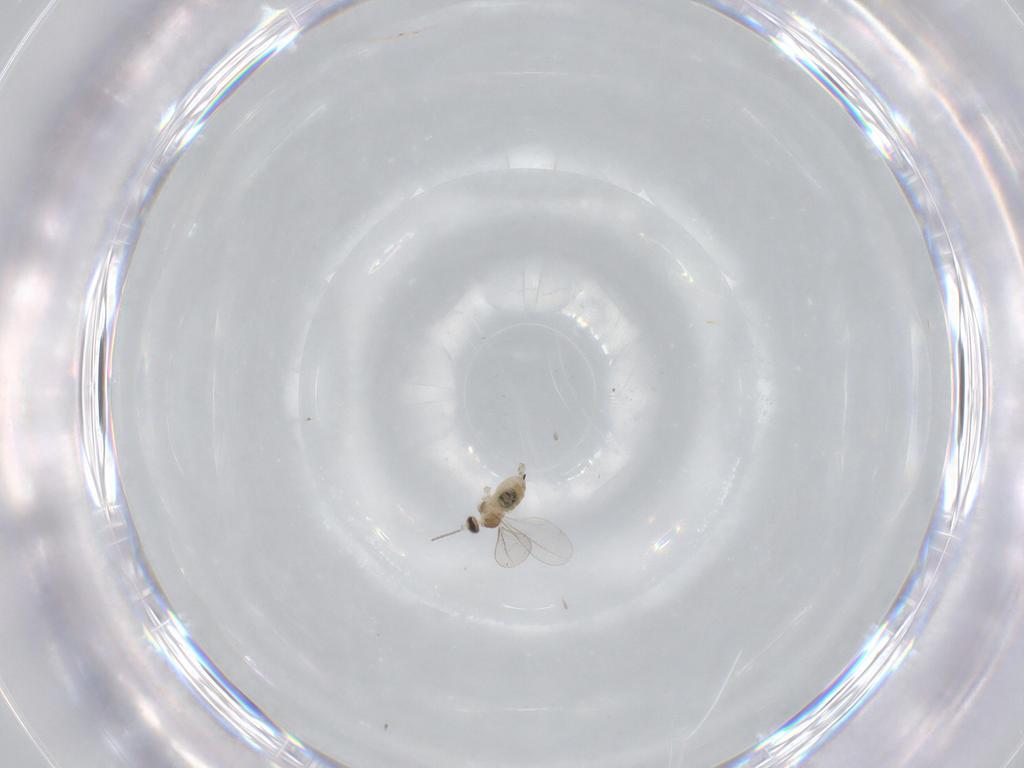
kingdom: Animalia
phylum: Arthropoda
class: Insecta
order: Diptera
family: Cecidomyiidae
